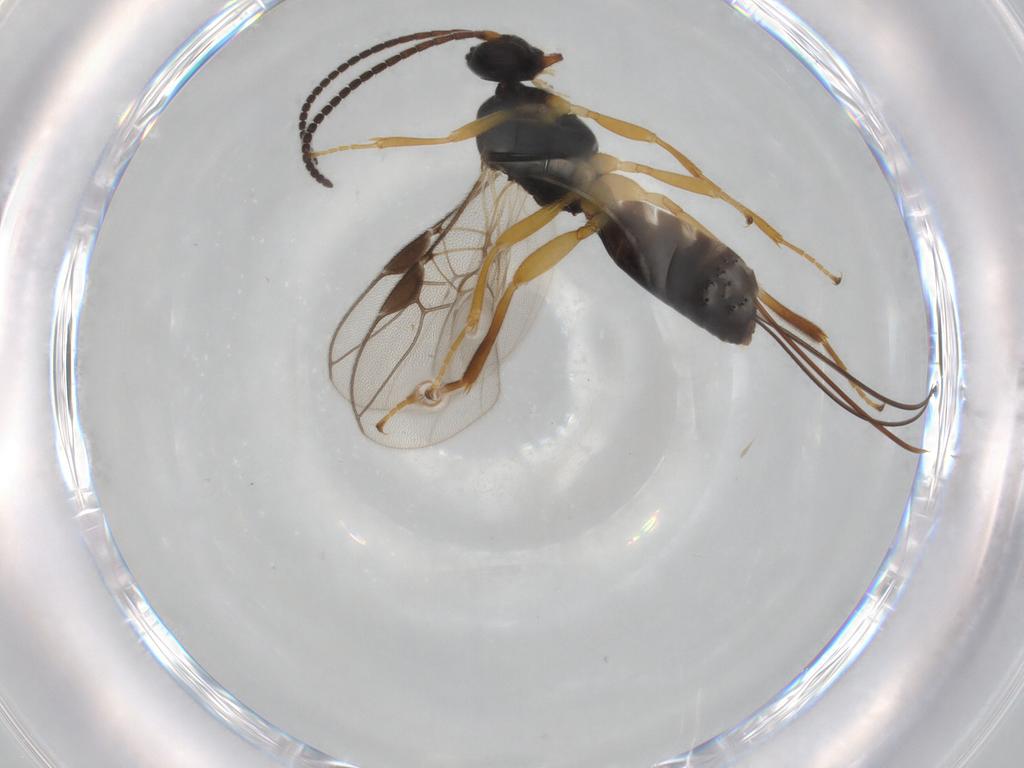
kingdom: Animalia
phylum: Arthropoda
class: Insecta
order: Hymenoptera
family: Braconidae
